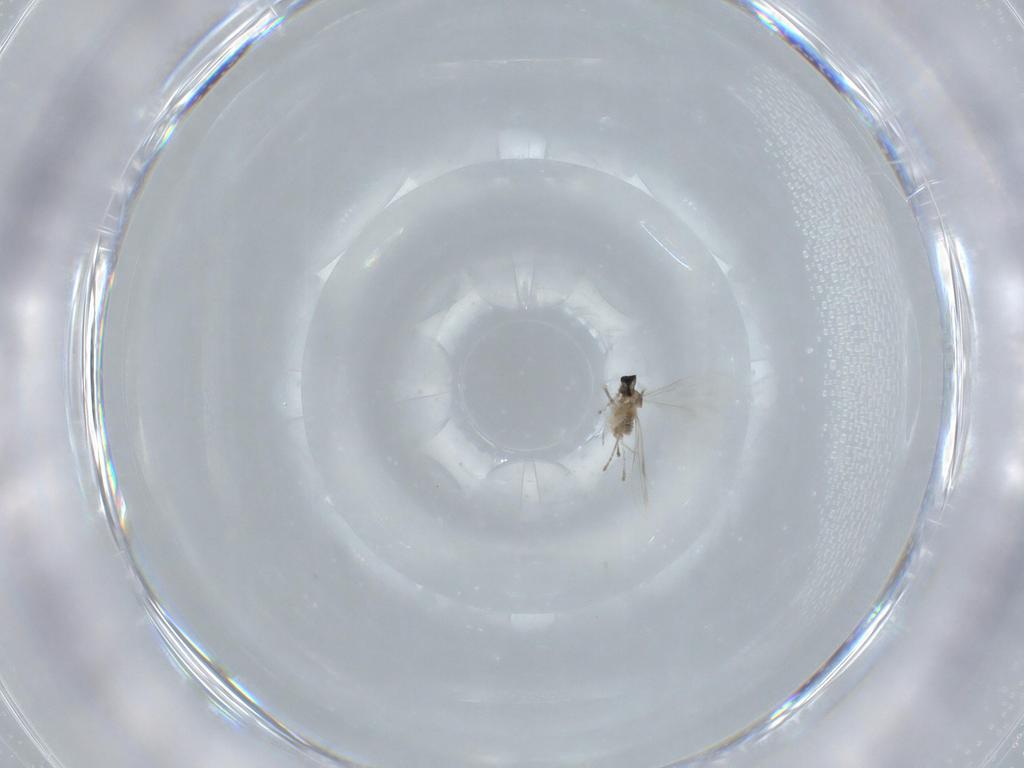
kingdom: Animalia
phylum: Arthropoda
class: Insecta
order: Diptera
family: Cecidomyiidae
